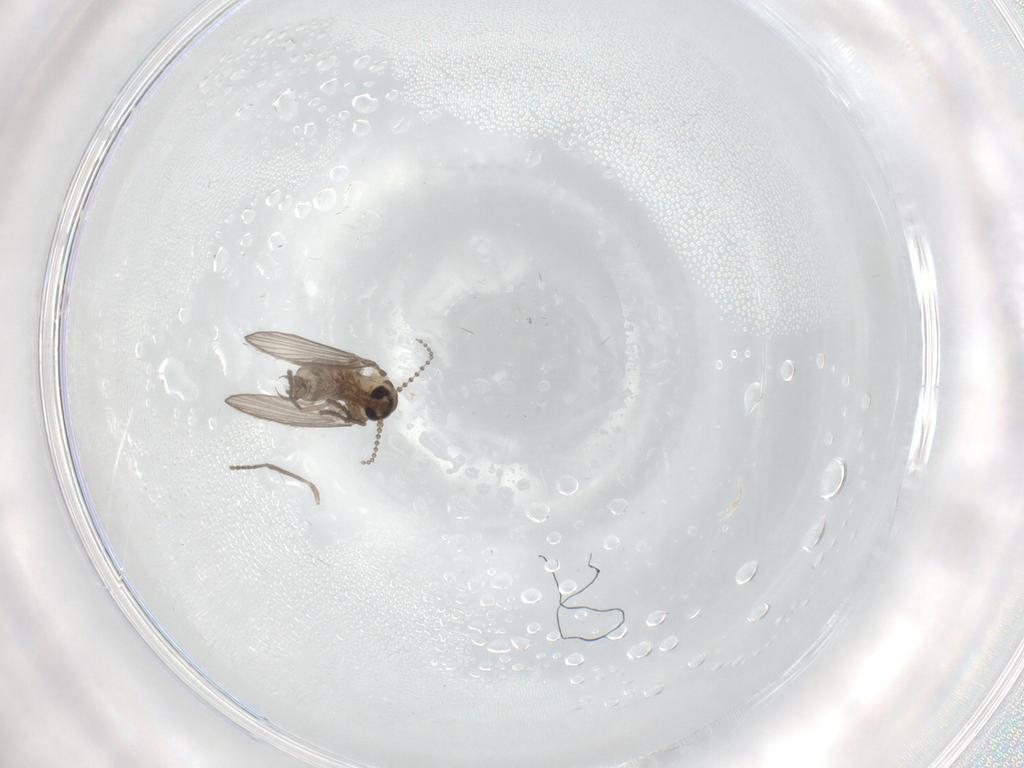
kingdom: Animalia
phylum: Arthropoda
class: Insecta
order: Diptera
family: Psychodidae
